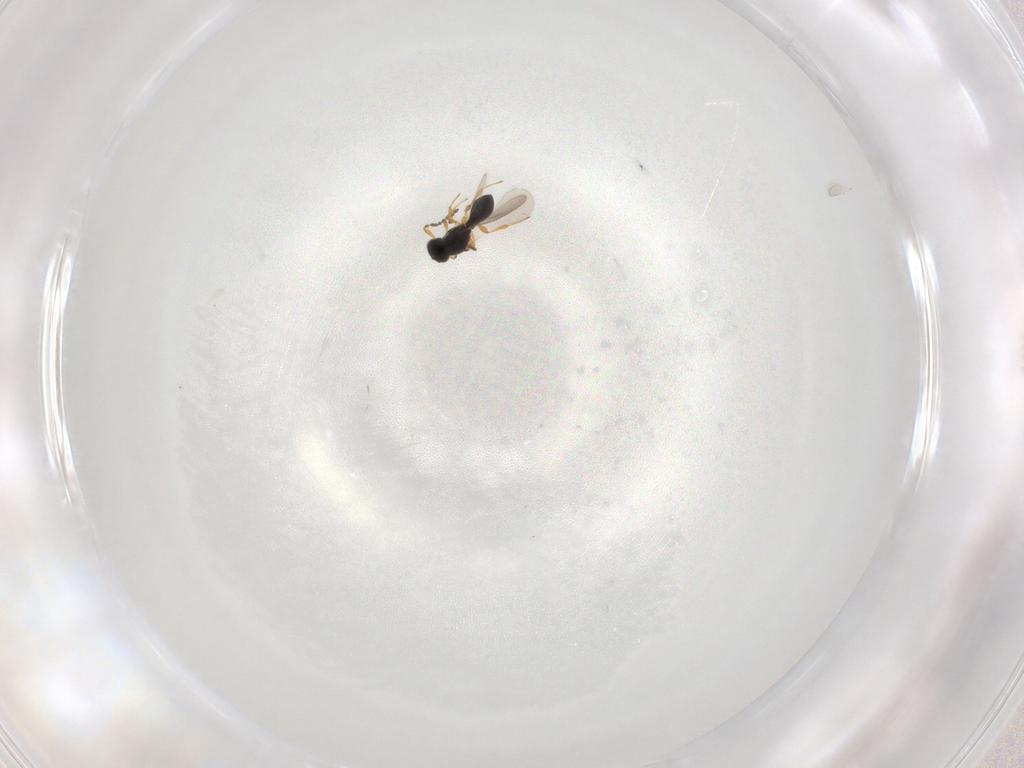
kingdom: Animalia
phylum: Arthropoda
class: Insecta
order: Hymenoptera
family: Platygastridae
